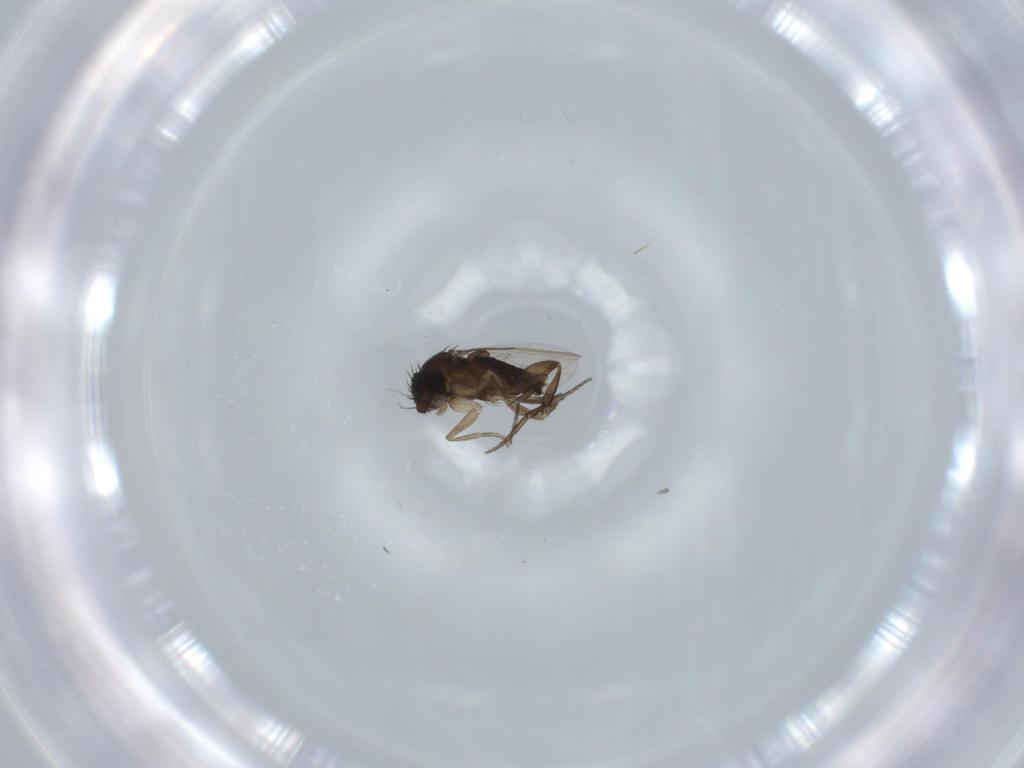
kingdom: Animalia
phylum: Arthropoda
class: Insecta
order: Diptera
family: Phoridae
